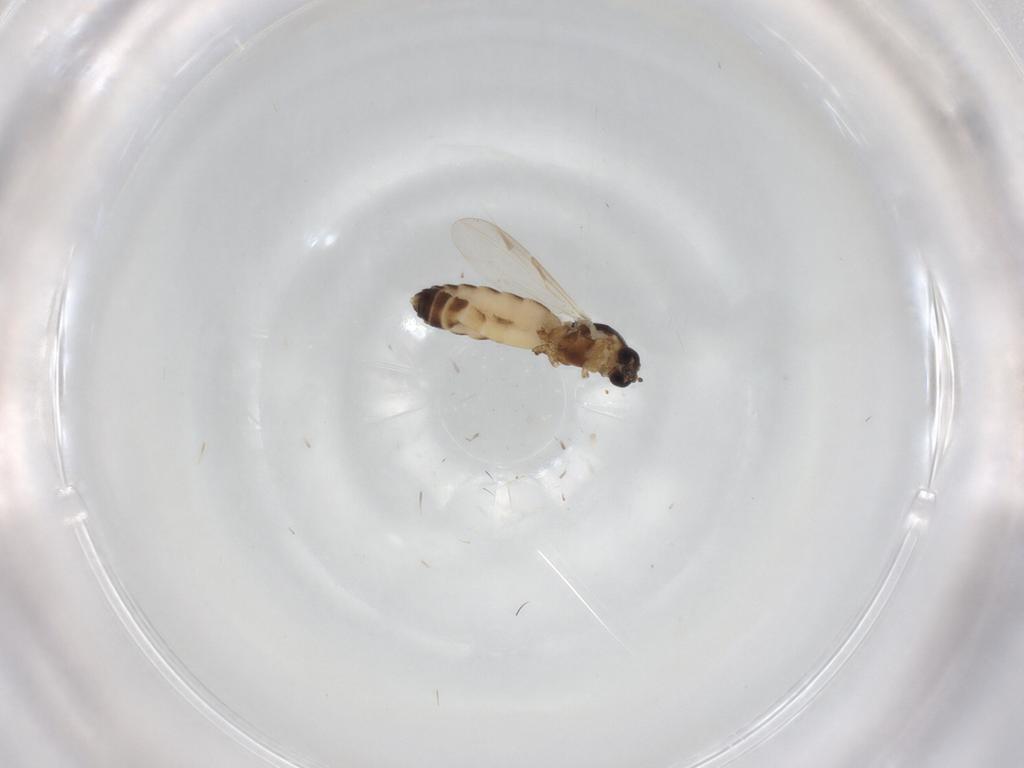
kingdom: Animalia
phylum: Arthropoda
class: Insecta
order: Diptera
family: Ceratopogonidae
